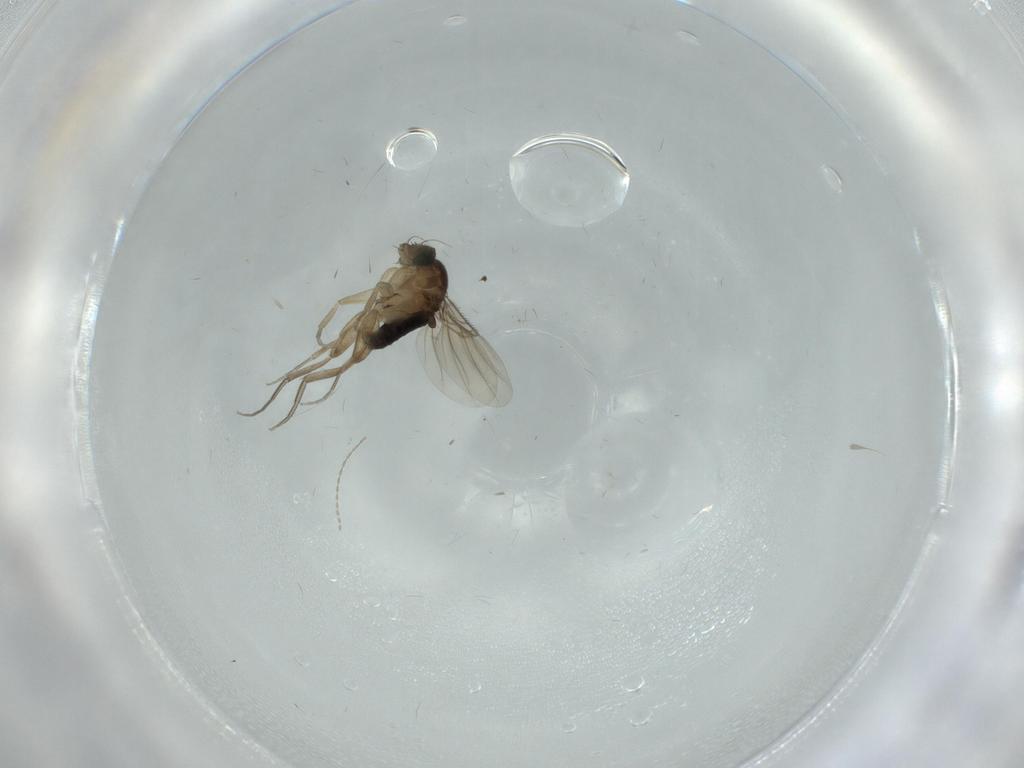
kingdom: Animalia
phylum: Arthropoda
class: Insecta
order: Diptera
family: Phoridae
